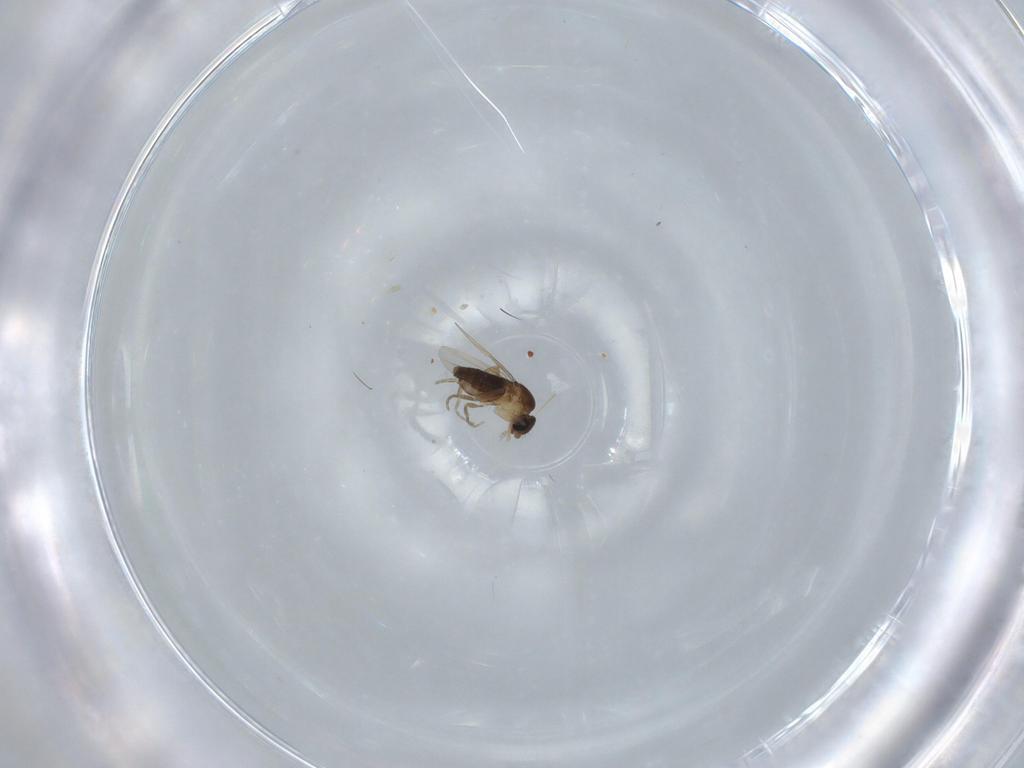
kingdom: Animalia
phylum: Arthropoda
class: Insecta
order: Diptera
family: Phoridae
